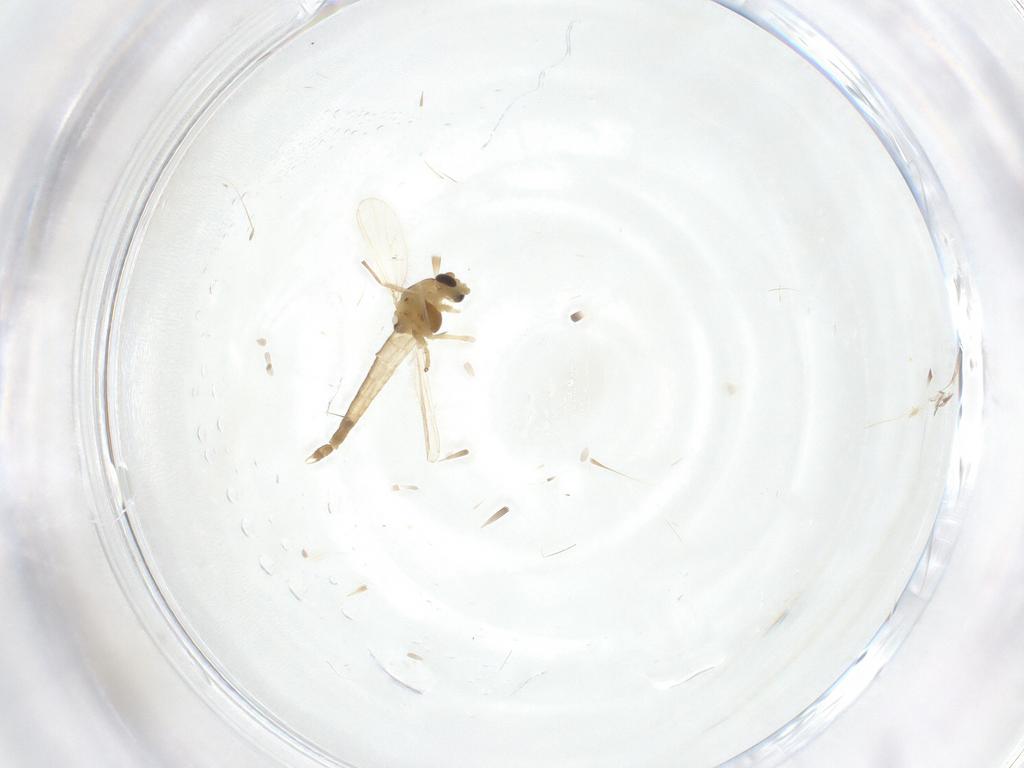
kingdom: Animalia
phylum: Arthropoda
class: Insecta
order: Diptera
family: Chironomidae
